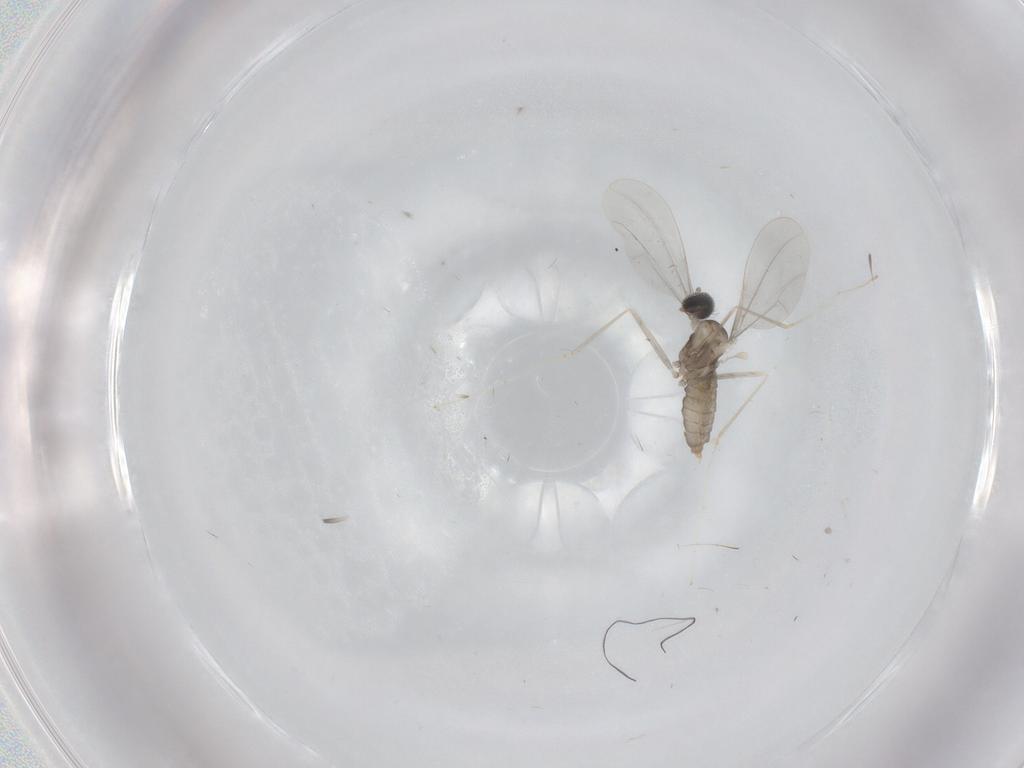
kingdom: Animalia
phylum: Arthropoda
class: Insecta
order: Diptera
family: Cecidomyiidae
